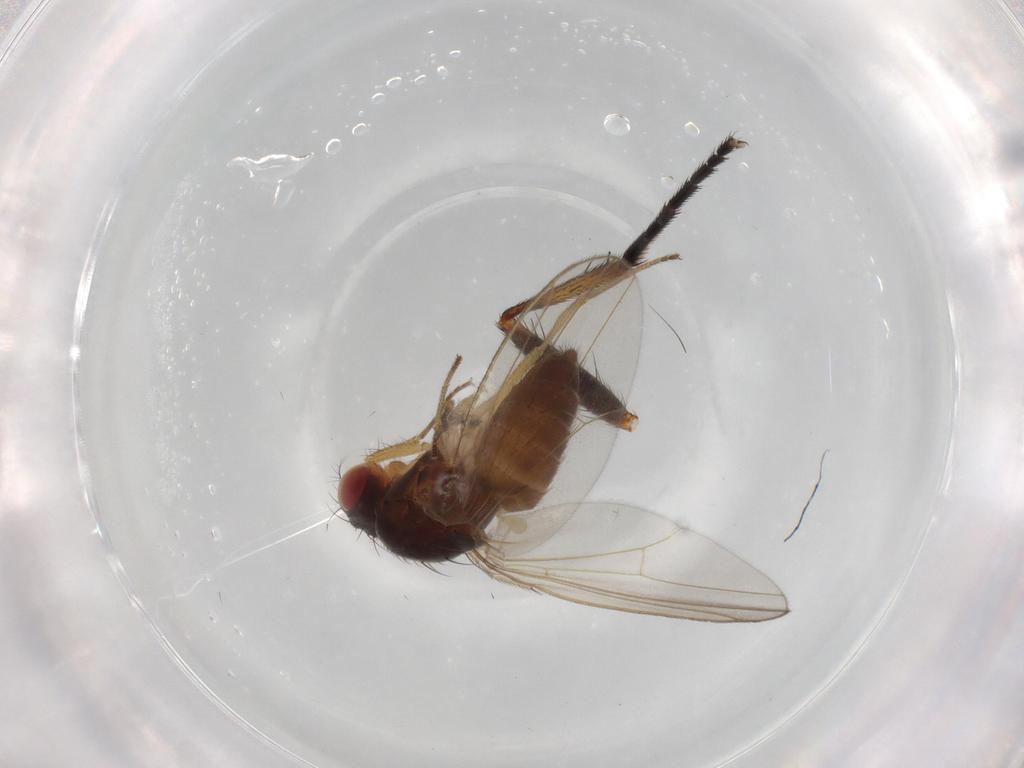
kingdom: Animalia
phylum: Arthropoda
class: Insecta
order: Diptera
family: Drosophilidae
